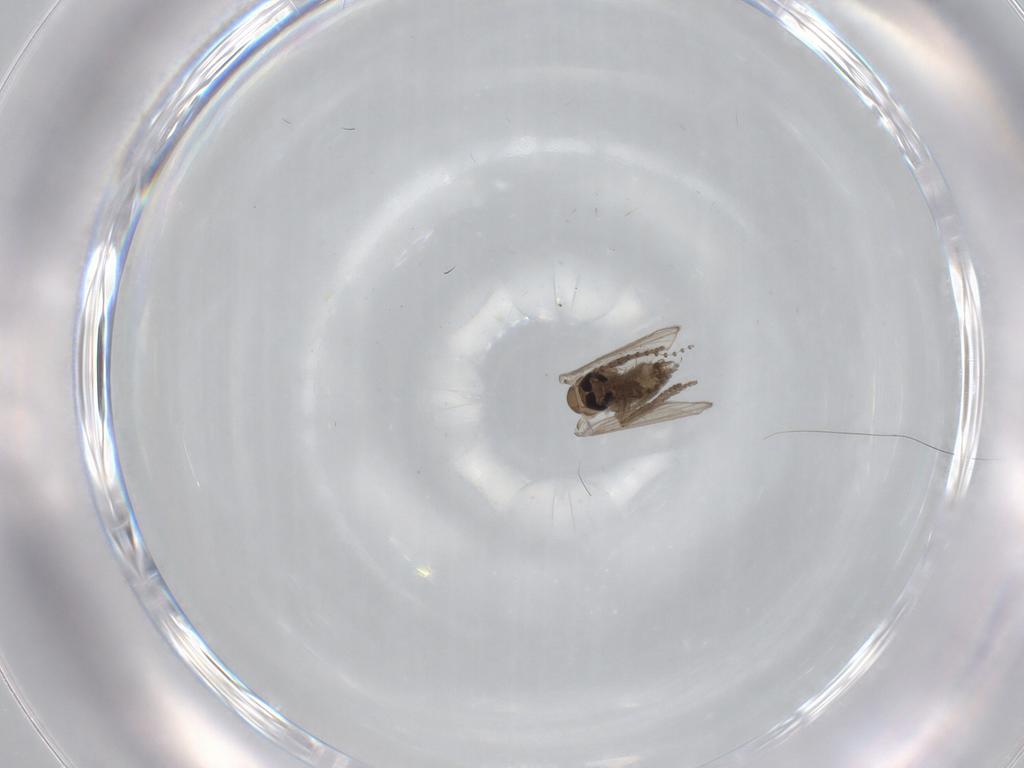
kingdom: Animalia
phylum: Arthropoda
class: Insecta
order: Diptera
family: Psychodidae
